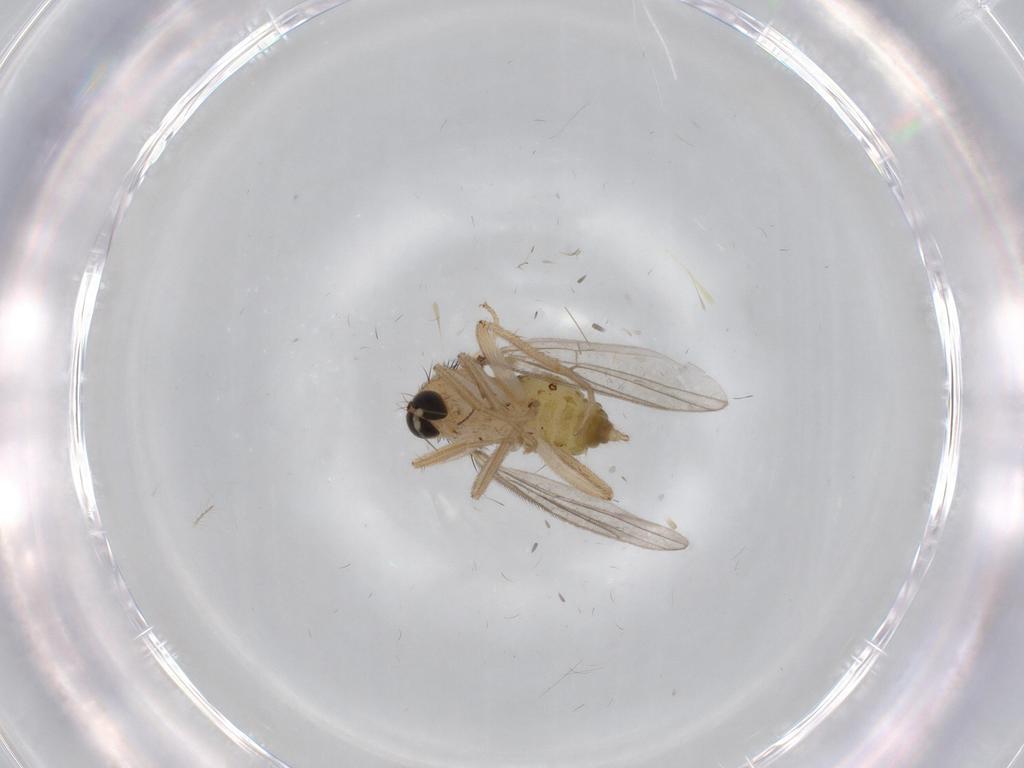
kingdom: Animalia
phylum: Arthropoda
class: Insecta
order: Diptera
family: Hybotidae
